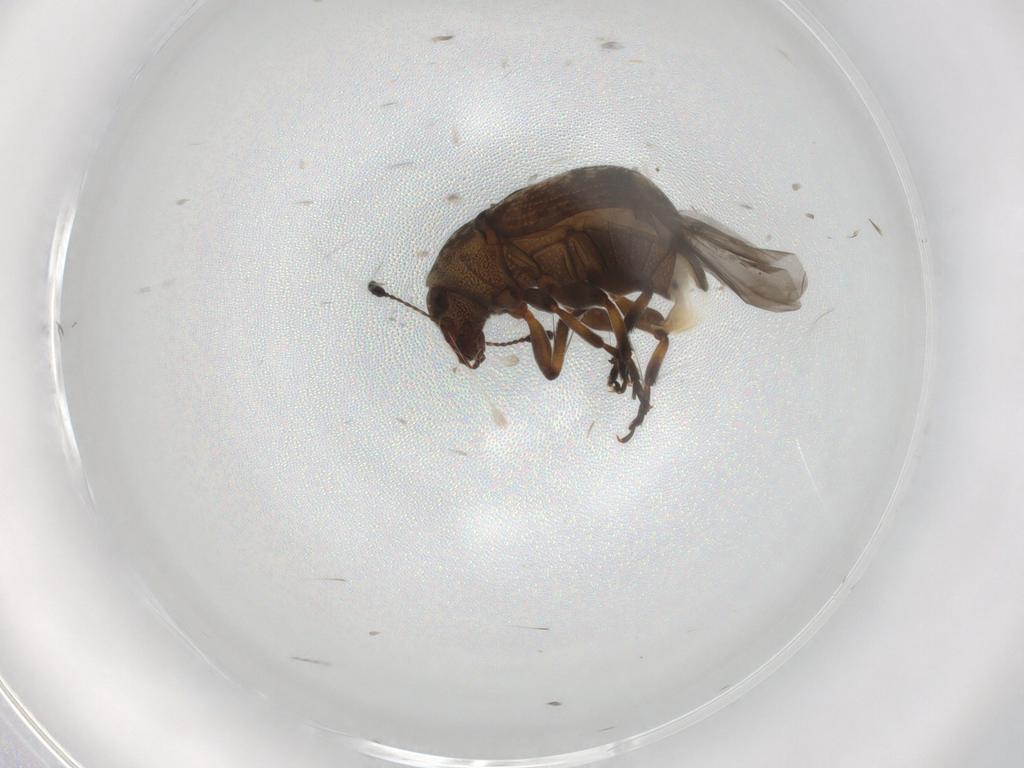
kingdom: Animalia
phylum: Arthropoda
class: Insecta
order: Coleoptera
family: Anthribidae
